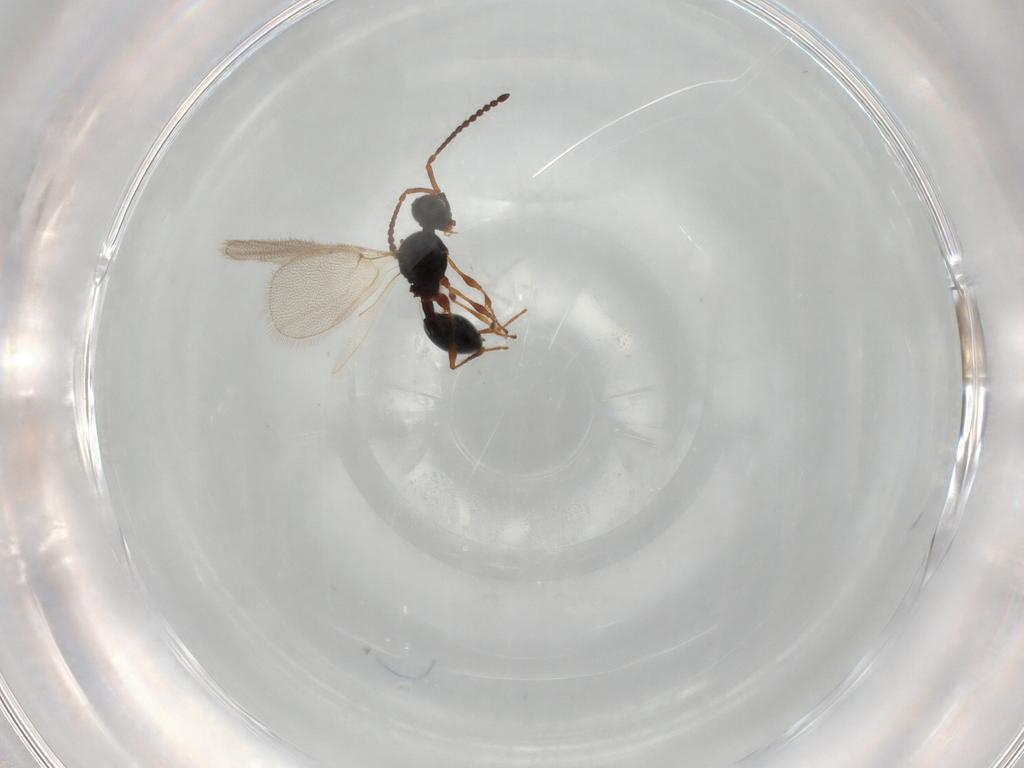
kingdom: Animalia
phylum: Arthropoda
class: Insecta
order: Hymenoptera
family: Diapriidae
